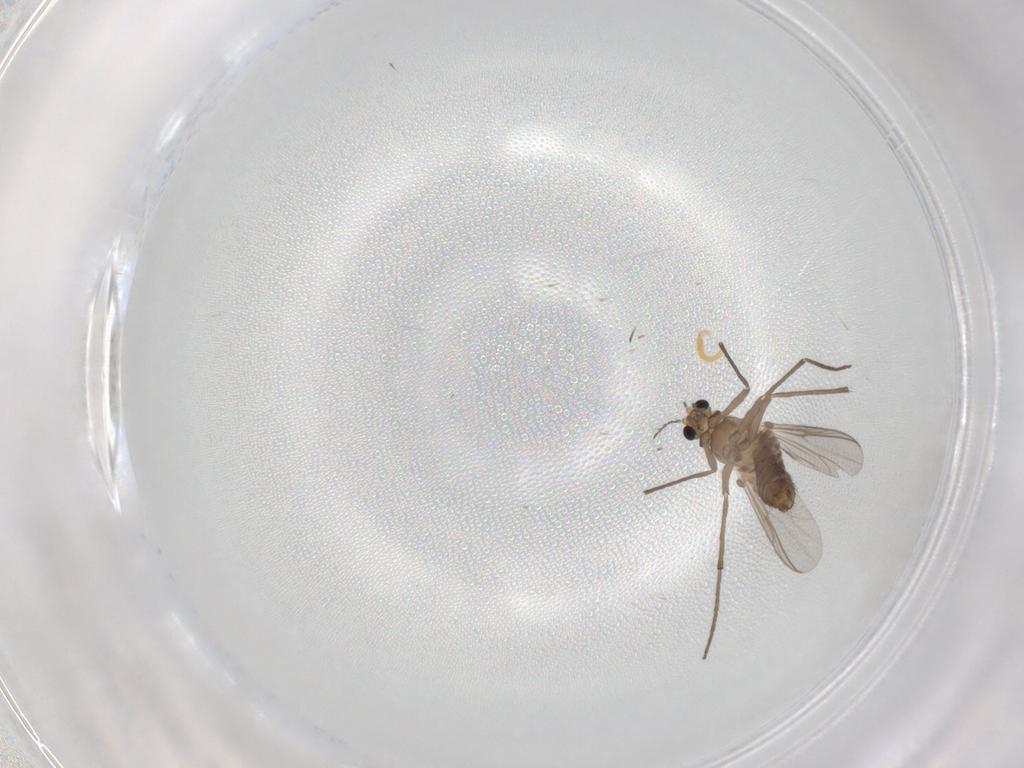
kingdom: Animalia
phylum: Arthropoda
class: Insecta
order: Diptera
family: Chironomidae
